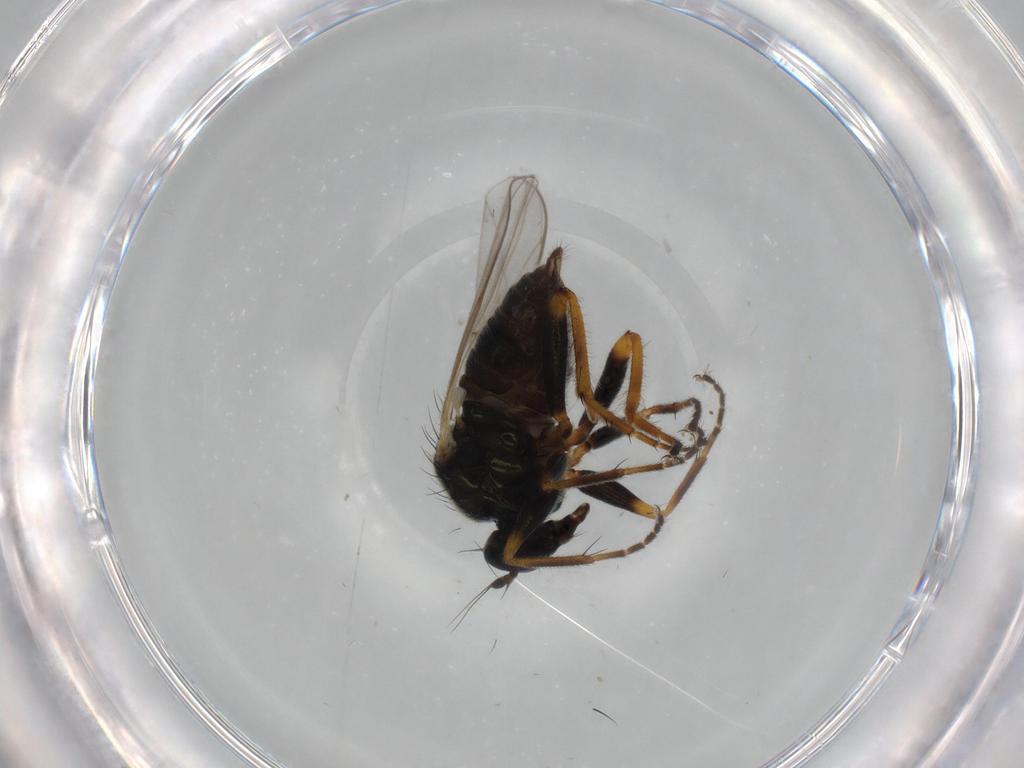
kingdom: Animalia
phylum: Arthropoda
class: Insecta
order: Diptera
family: Hybotidae
